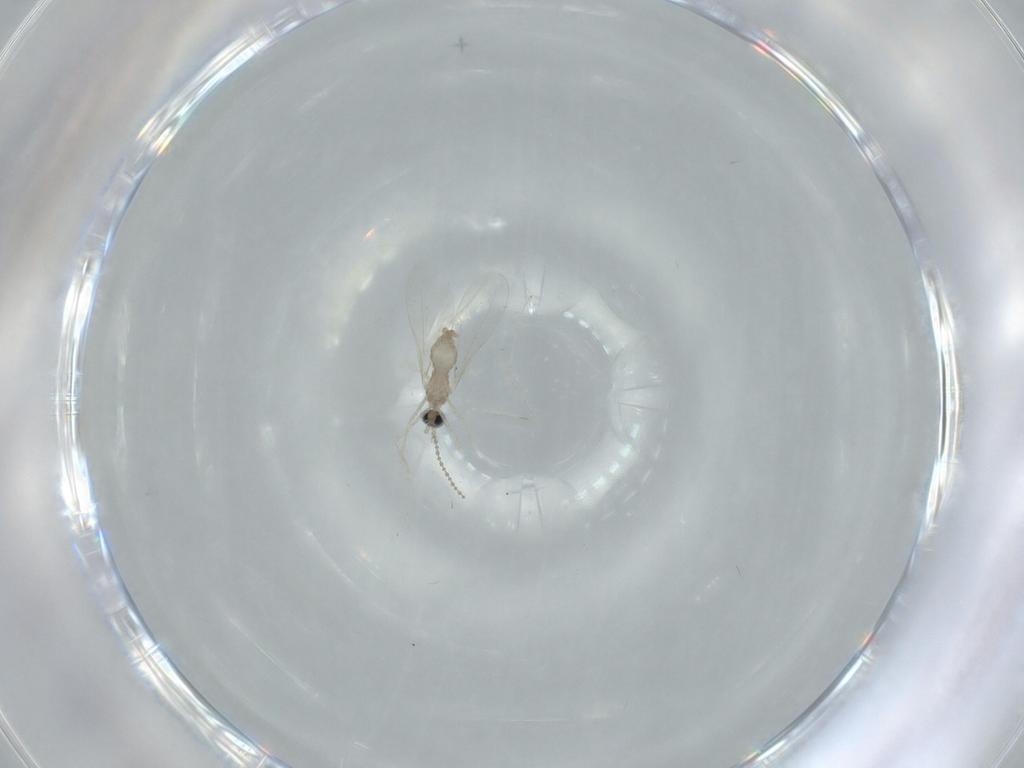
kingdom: Animalia
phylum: Arthropoda
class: Insecta
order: Diptera
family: Cecidomyiidae
